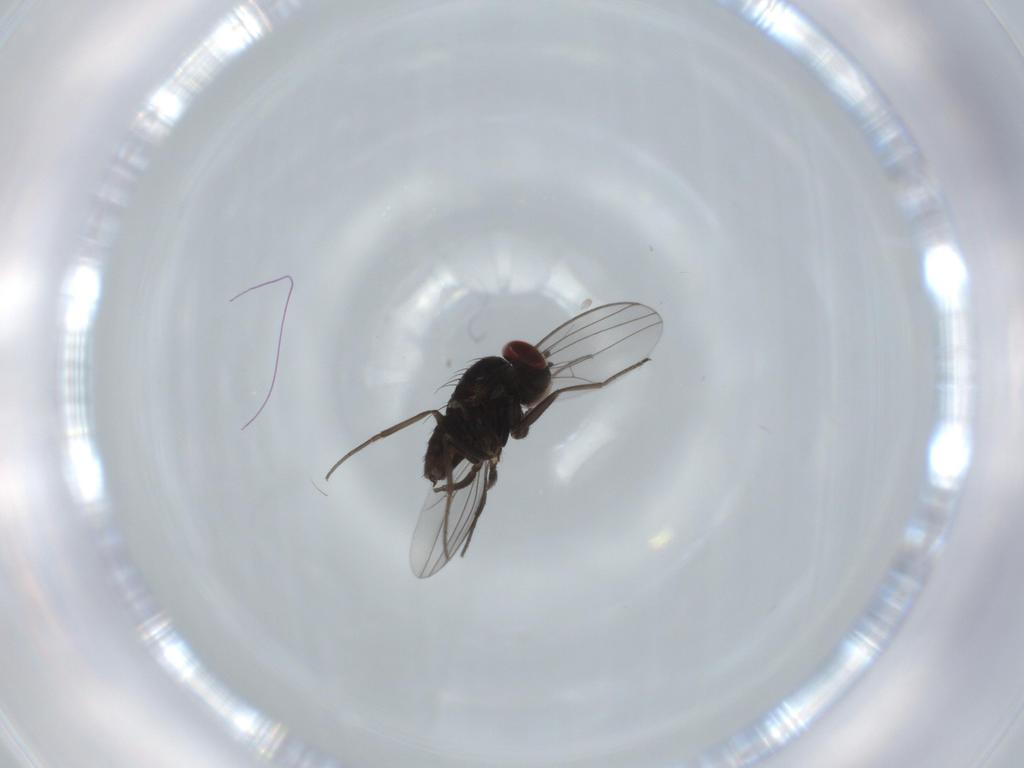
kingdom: Animalia
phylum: Arthropoda
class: Insecta
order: Diptera
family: Dolichopodidae
